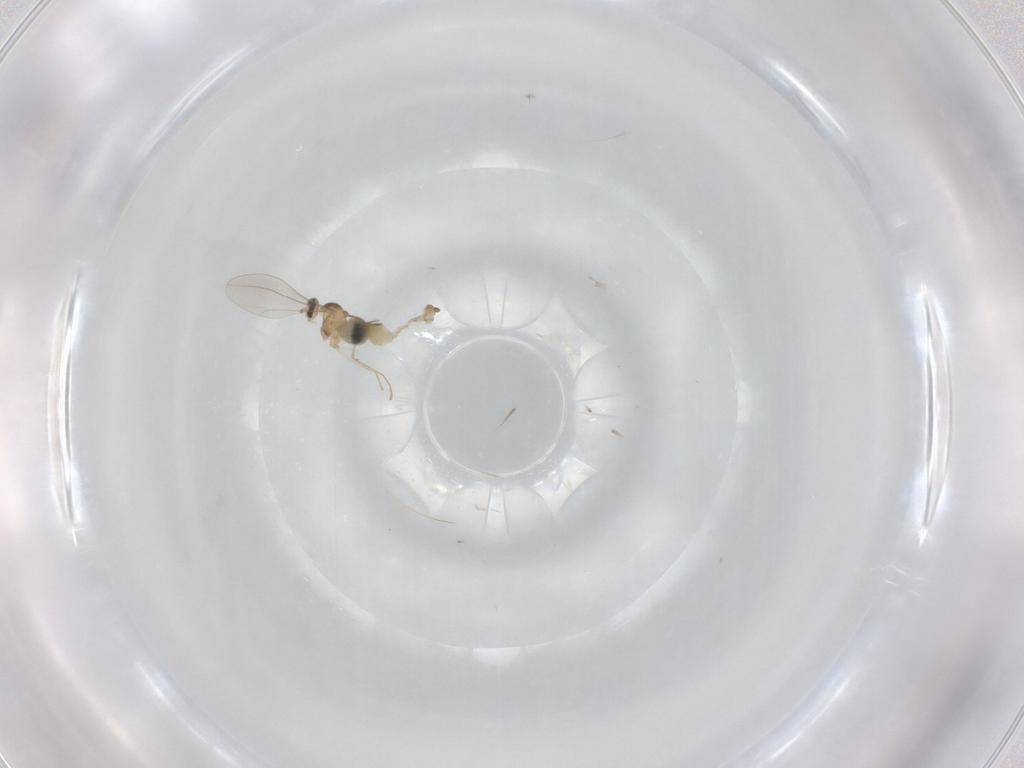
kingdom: Animalia
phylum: Arthropoda
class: Insecta
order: Diptera
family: Cecidomyiidae
